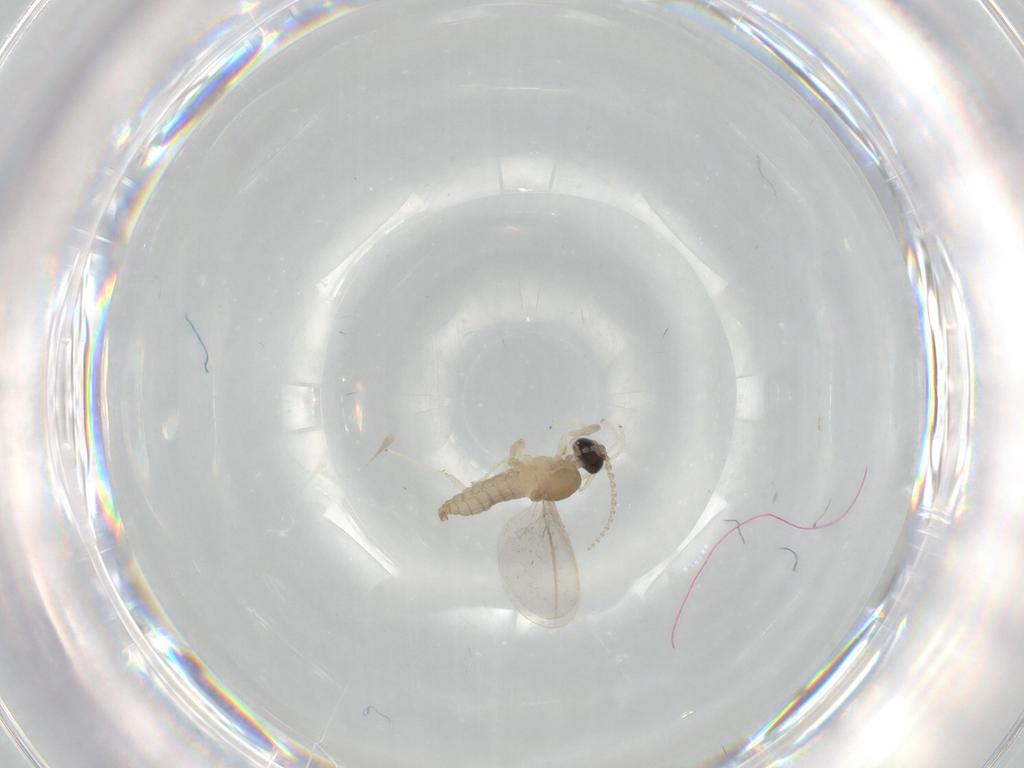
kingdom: Animalia
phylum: Arthropoda
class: Insecta
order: Diptera
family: Cecidomyiidae
